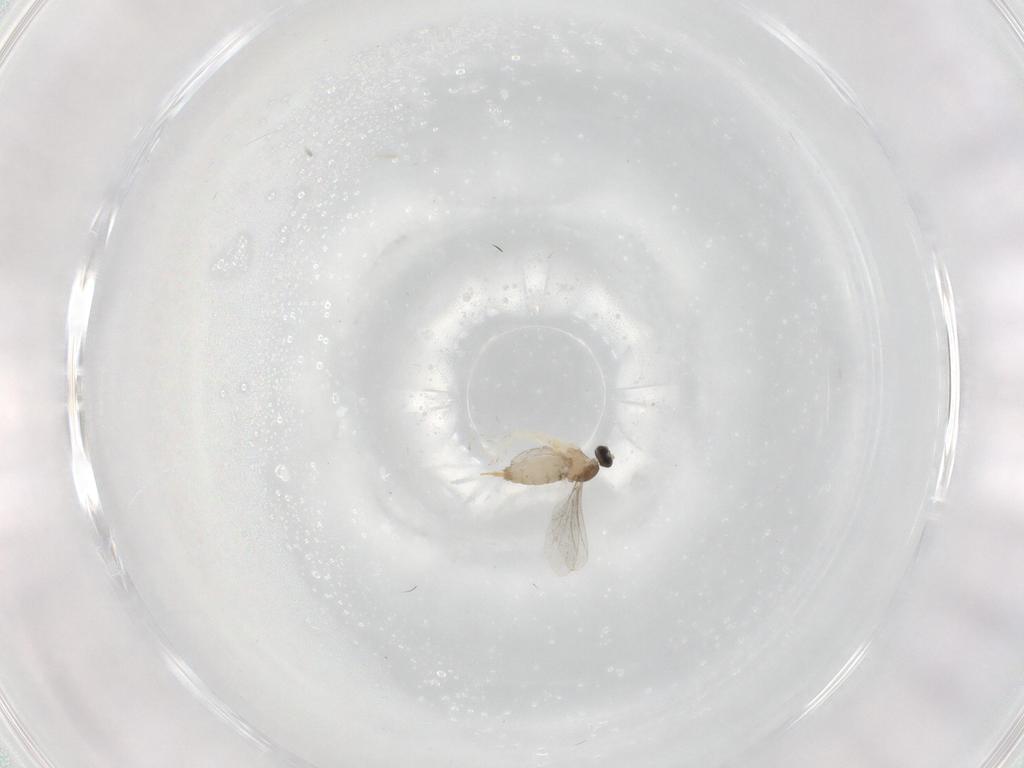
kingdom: Animalia
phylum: Arthropoda
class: Insecta
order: Diptera
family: Cecidomyiidae
